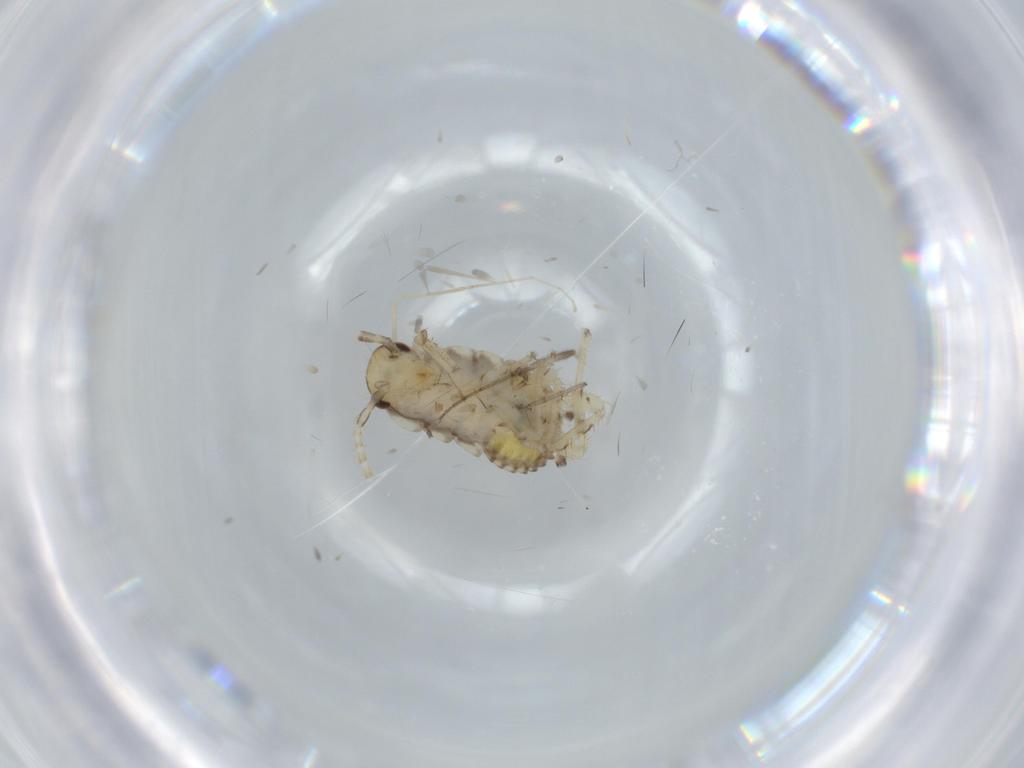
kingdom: Animalia
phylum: Arthropoda
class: Insecta
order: Blattodea
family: Ectobiidae
